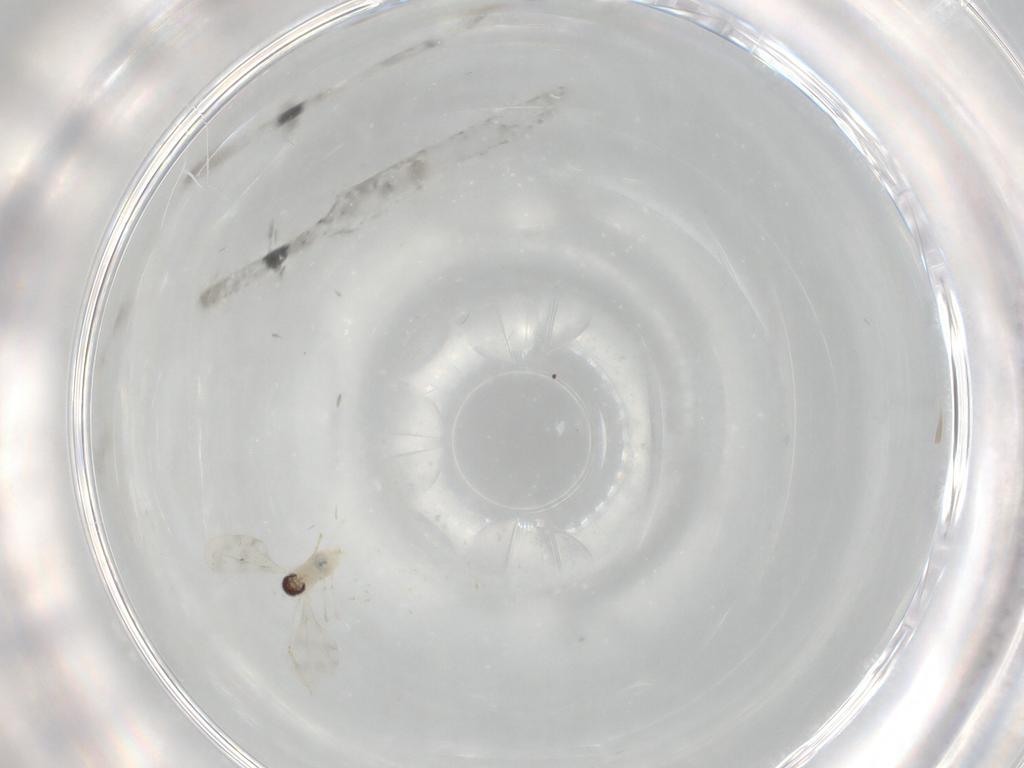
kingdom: Animalia
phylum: Arthropoda
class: Insecta
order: Diptera
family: Cecidomyiidae
